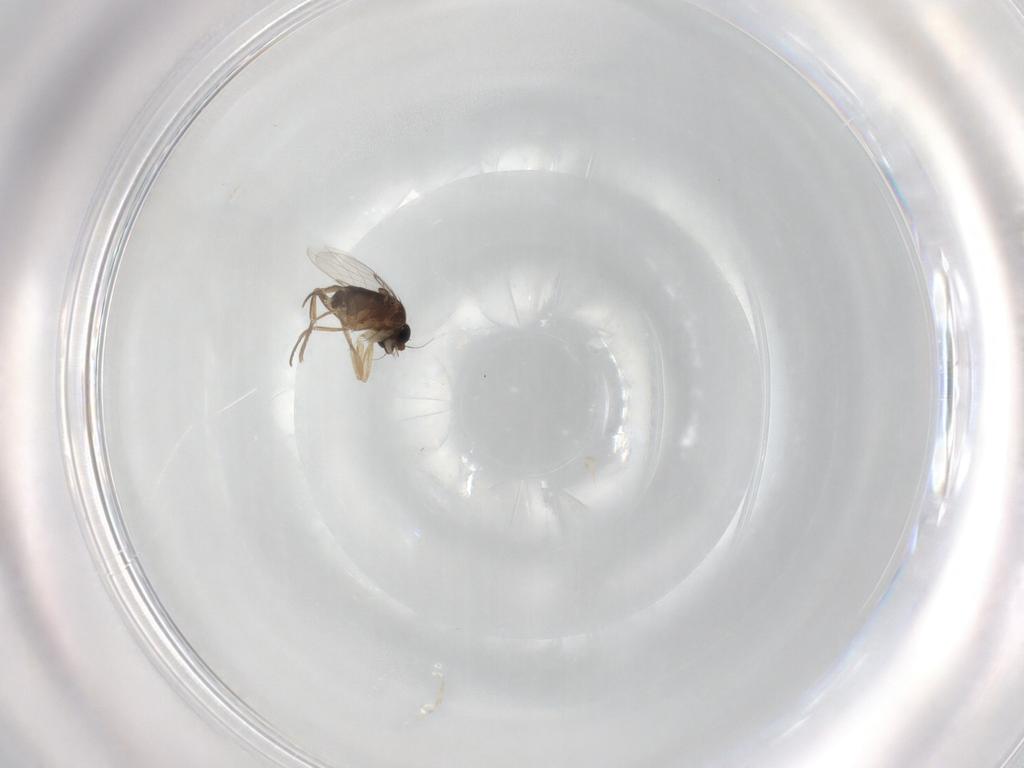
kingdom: Animalia
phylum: Arthropoda
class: Insecta
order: Diptera
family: Phoridae
